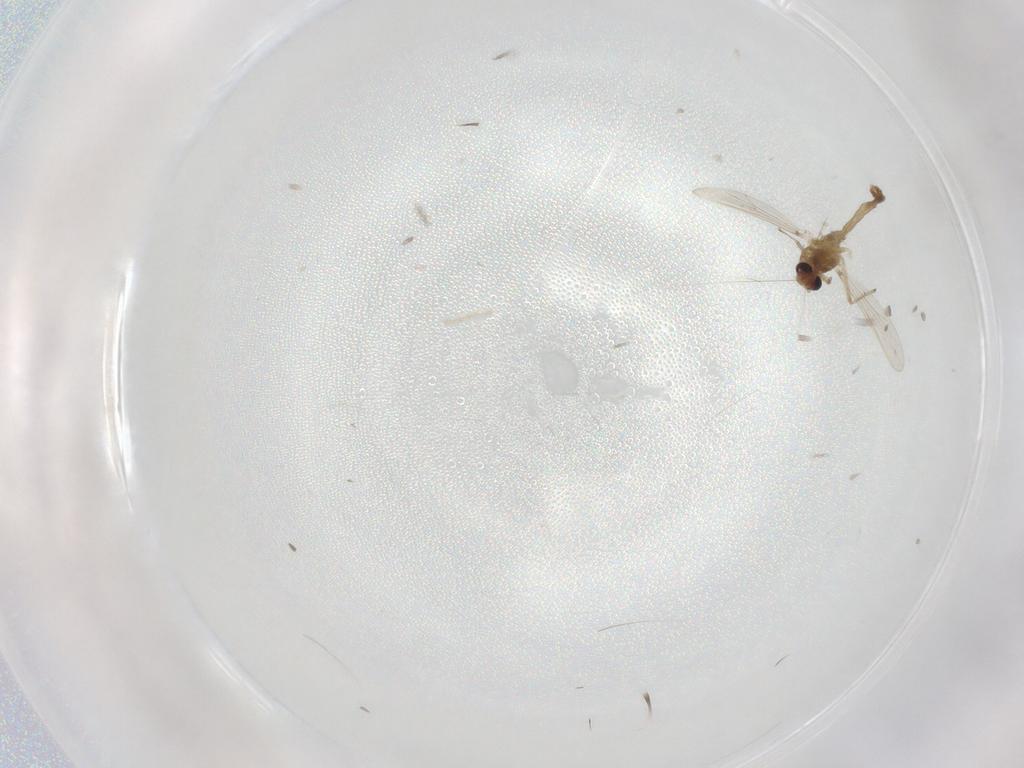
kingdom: Animalia
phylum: Arthropoda
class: Insecta
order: Diptera
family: Chironomidae
